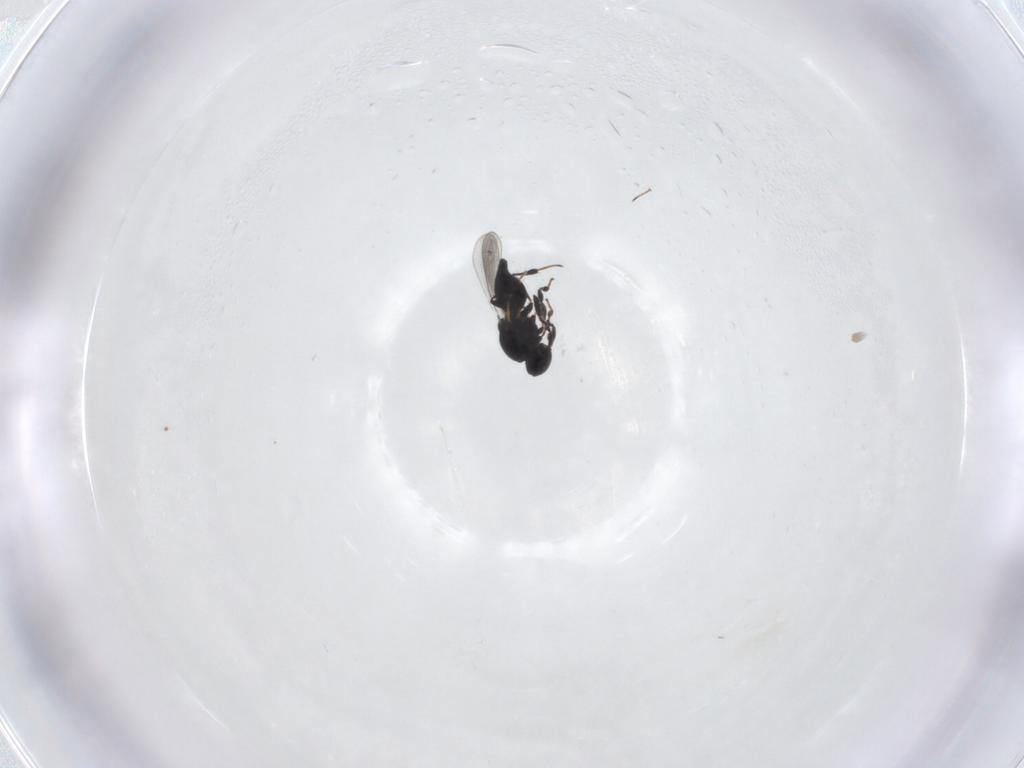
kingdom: Animalia
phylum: Arthropoda
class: Insecta
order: Hymenoptera
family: Platygastridae
